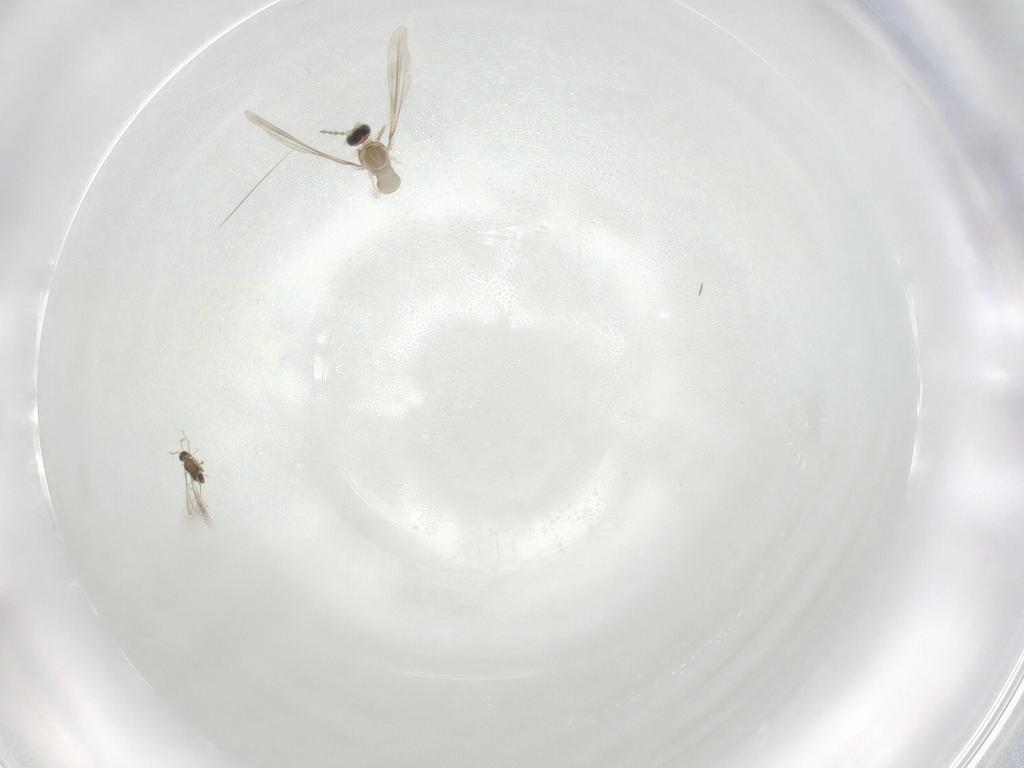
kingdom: Animalia
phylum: Arthropoda
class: Insecta
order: Diptera
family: Cecidomyiidae
